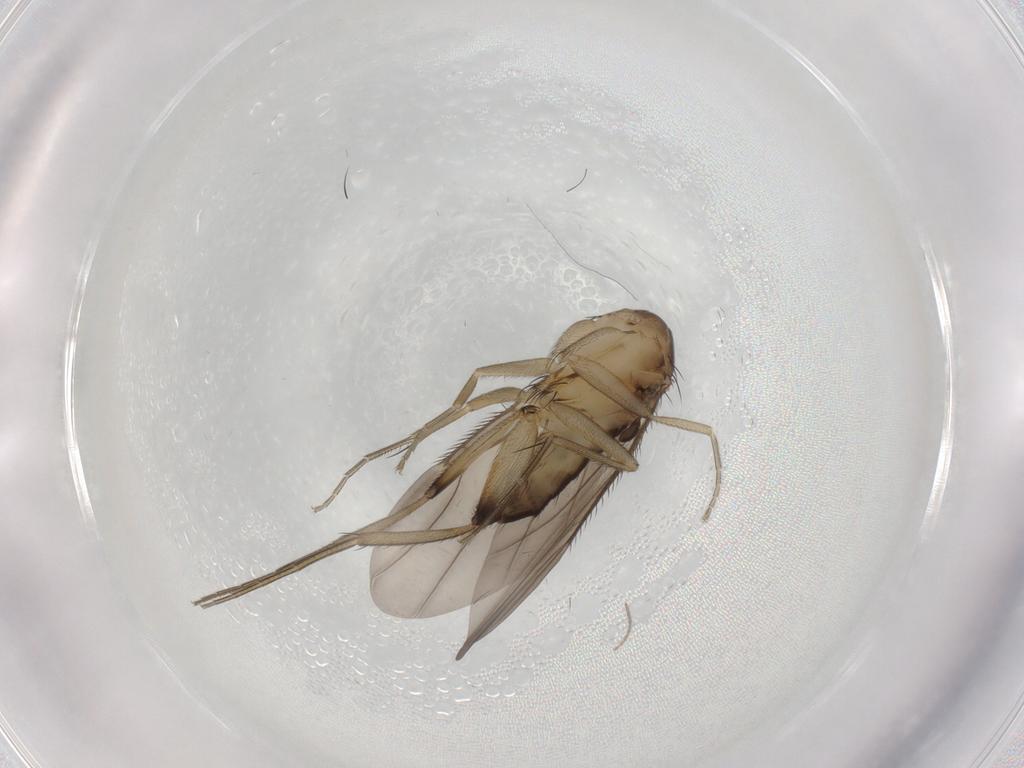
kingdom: Animalia
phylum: Arthropoda
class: Insecta
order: Diptera
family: Phoridae
